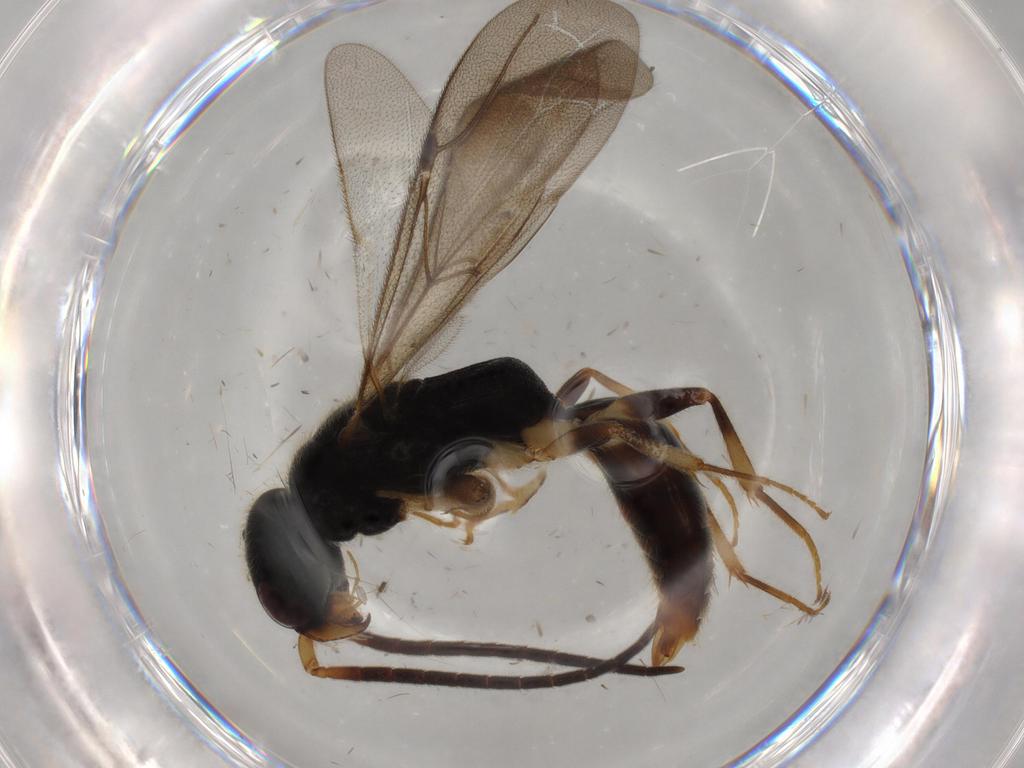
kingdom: Animalia
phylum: Arthropoda
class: Insecta
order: Hymenoptera
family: Bethylidae
